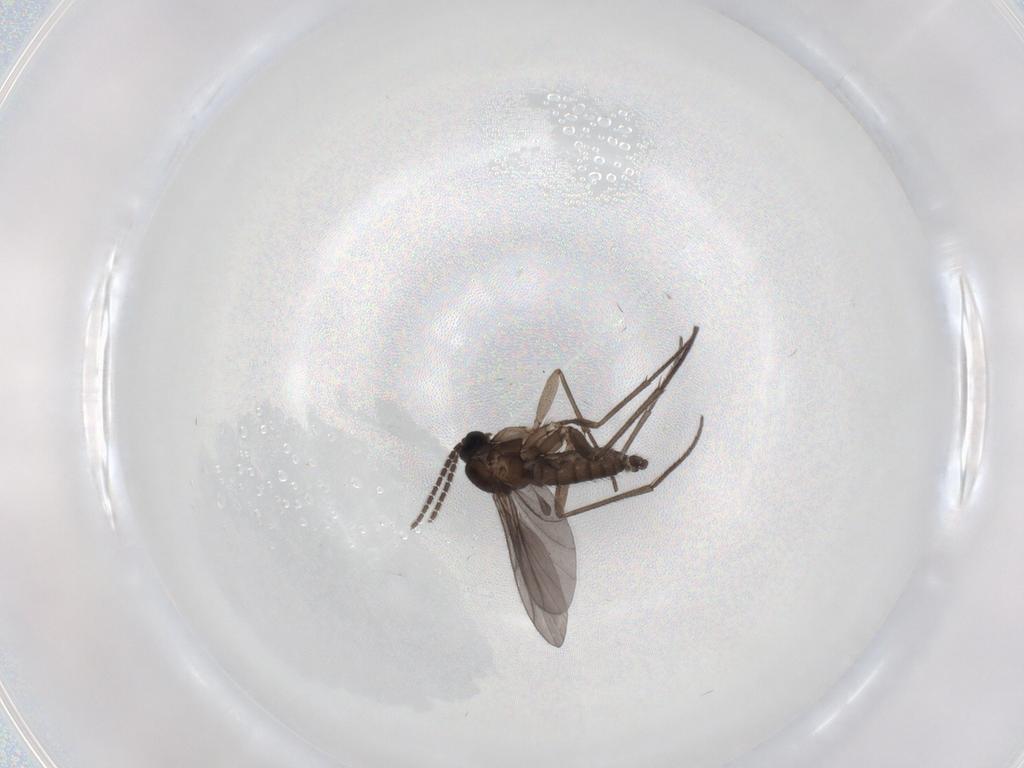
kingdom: Animalia
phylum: Arthropoda
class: Insecta
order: Diptera
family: Sciaridae
